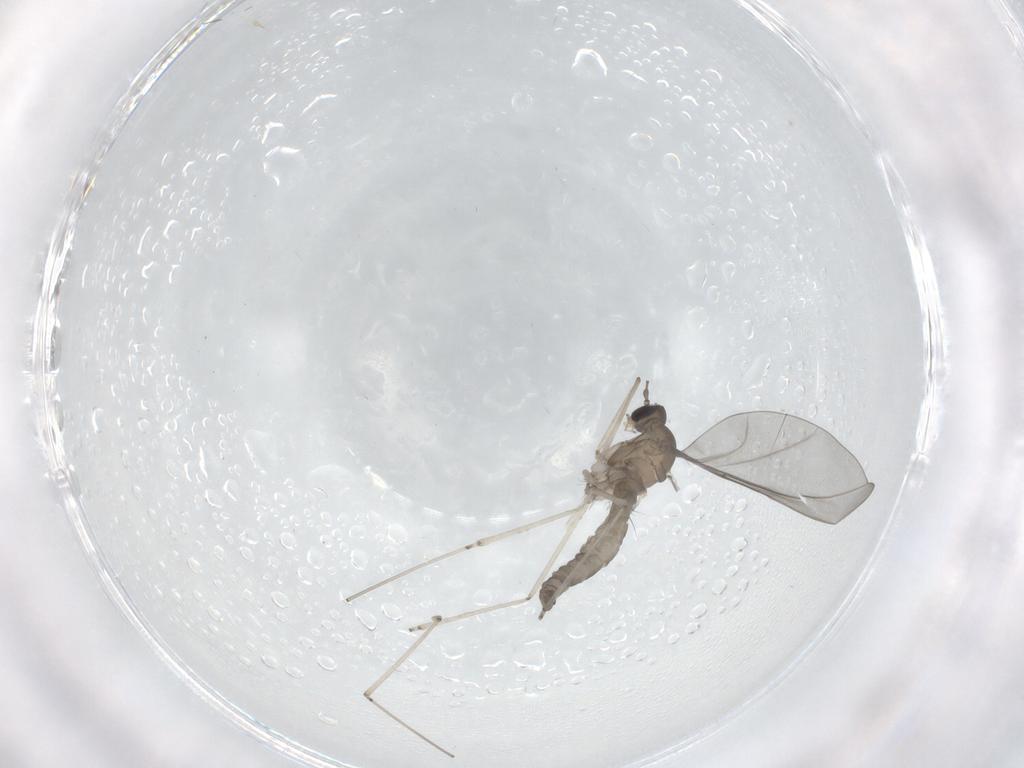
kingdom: Animalia
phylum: Arthropoda
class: Insecta
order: Diptera
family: Cecidomyiidae
